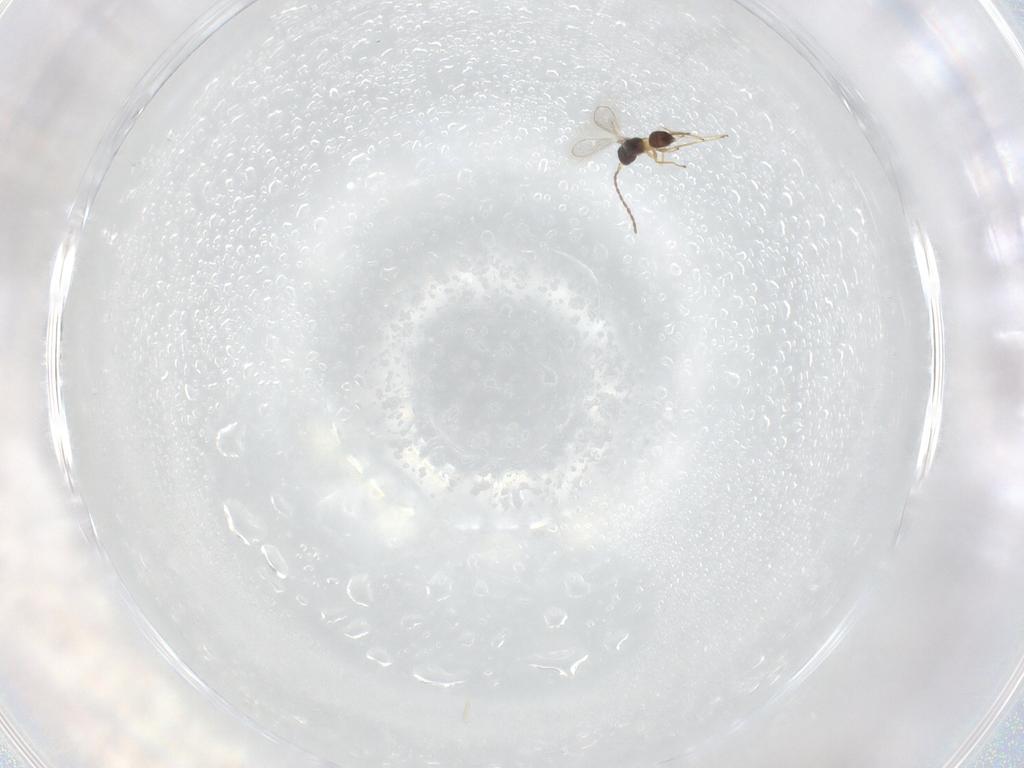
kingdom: Animalia
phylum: Arthropoda
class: Insecta
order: Hymenoptera
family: Mymaridae
